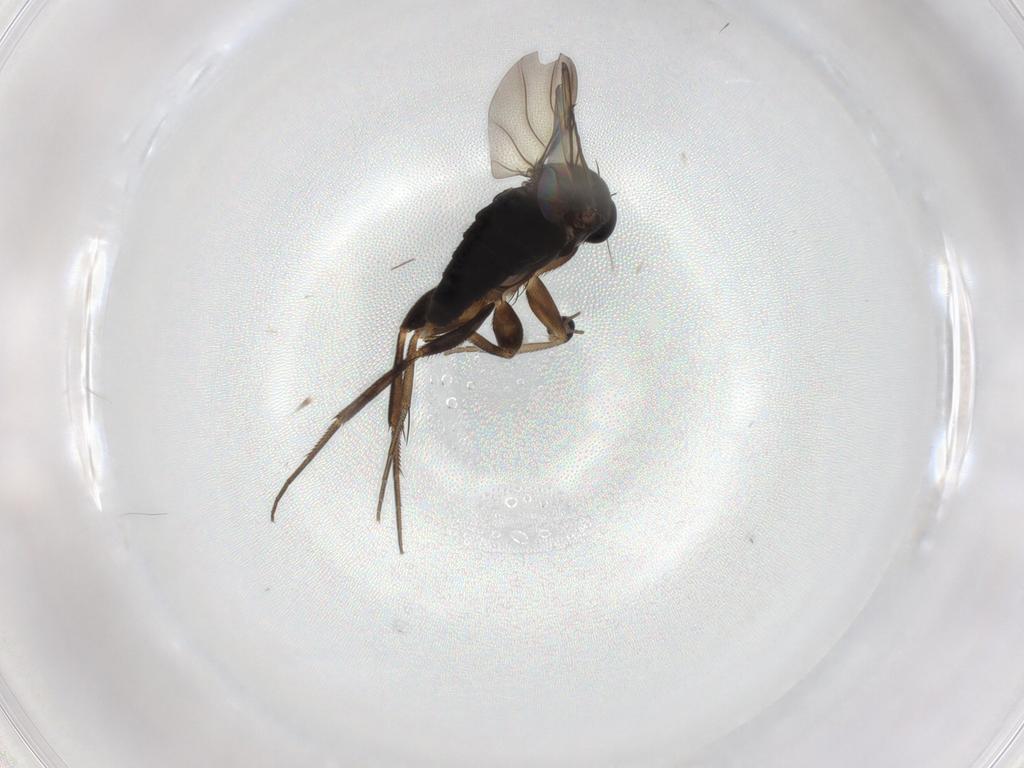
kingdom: Animalia
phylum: Arthropoda
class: Insecta
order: Diptera
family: Cecidomyiidae
